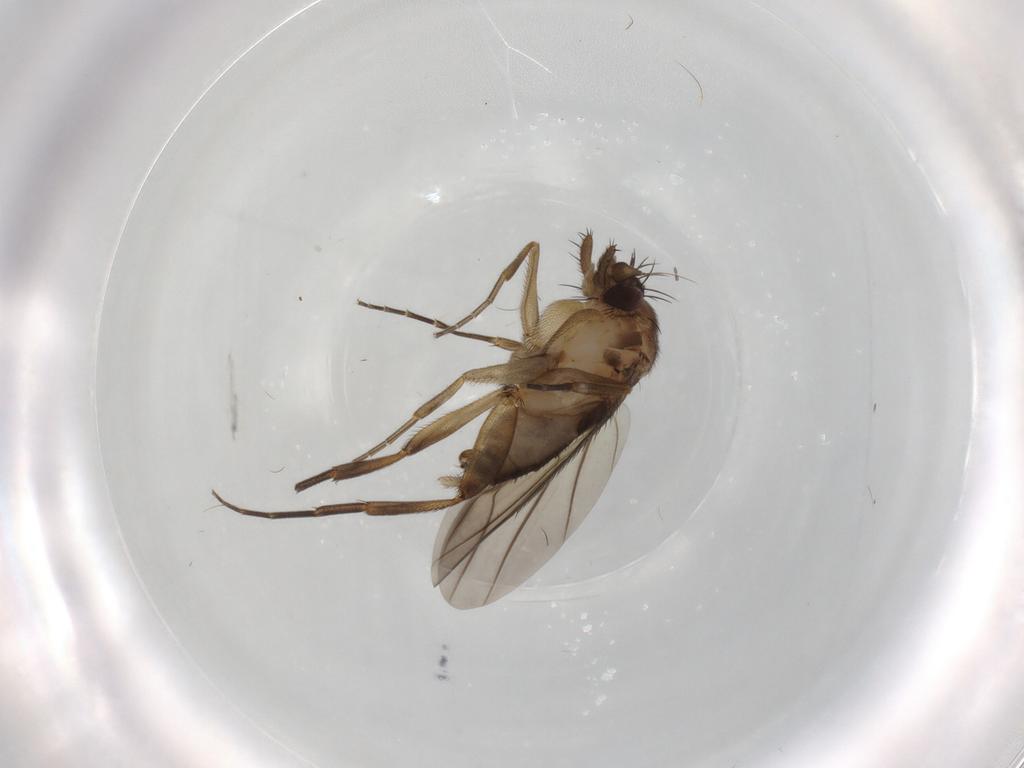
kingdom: Animalia
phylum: Arthropoda
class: Insecta
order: Diptera
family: Phoridae
